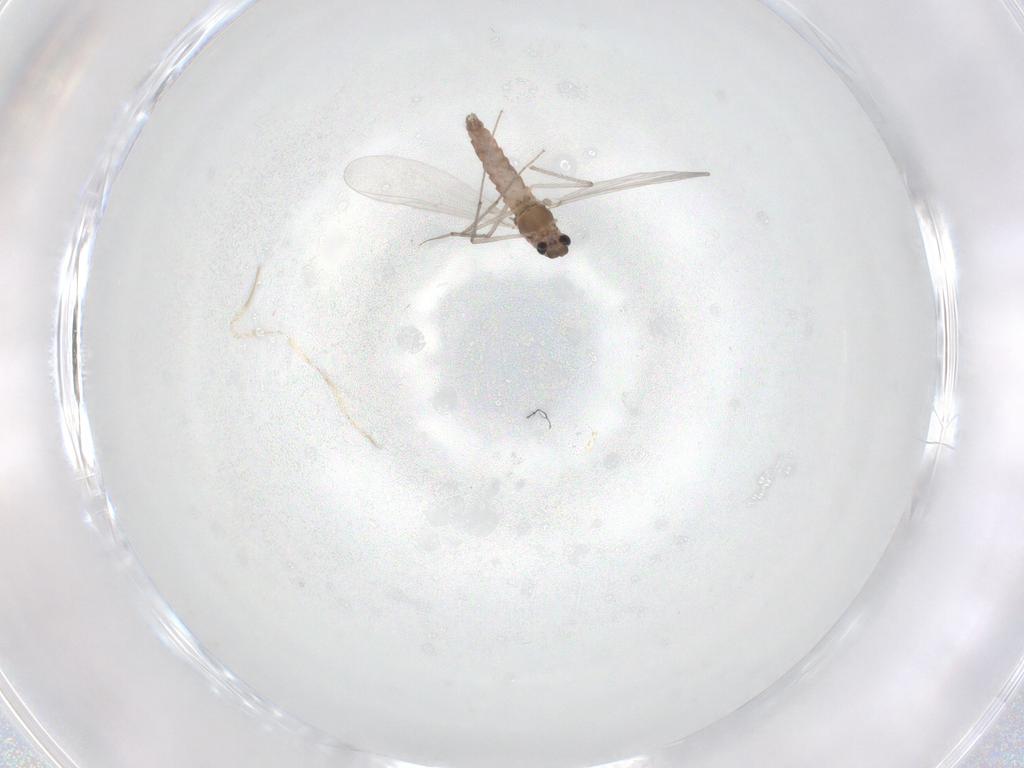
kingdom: Animalia
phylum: Arthropoda
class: Insecta
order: Diptera
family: Chironomidae
